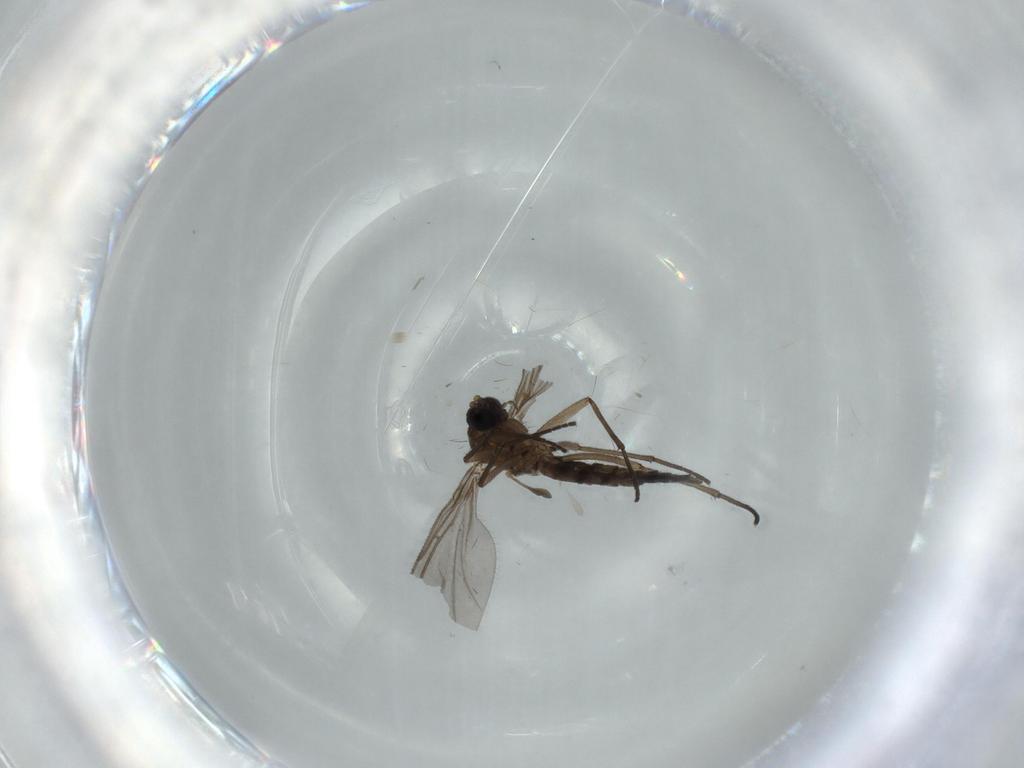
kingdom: Animalia
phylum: Arthropoda
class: Insecta
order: Diptera
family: Sciaridae
